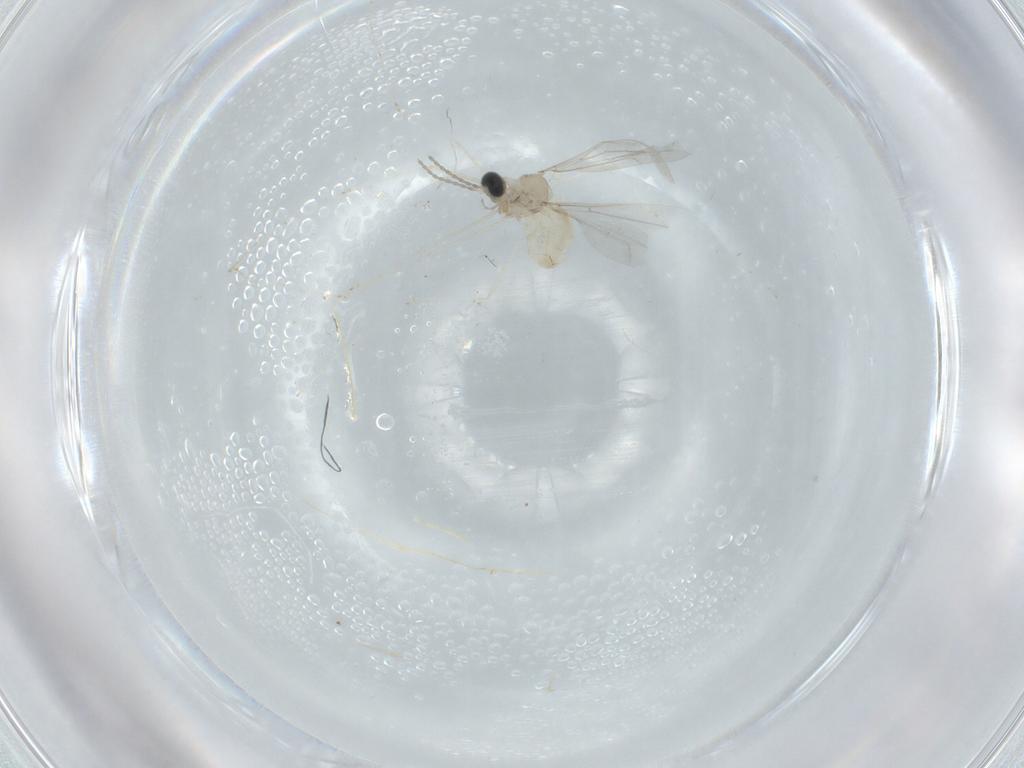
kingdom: Animalia
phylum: Arthropoda
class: Insecta
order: Diptera
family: Cecidomyiidae
